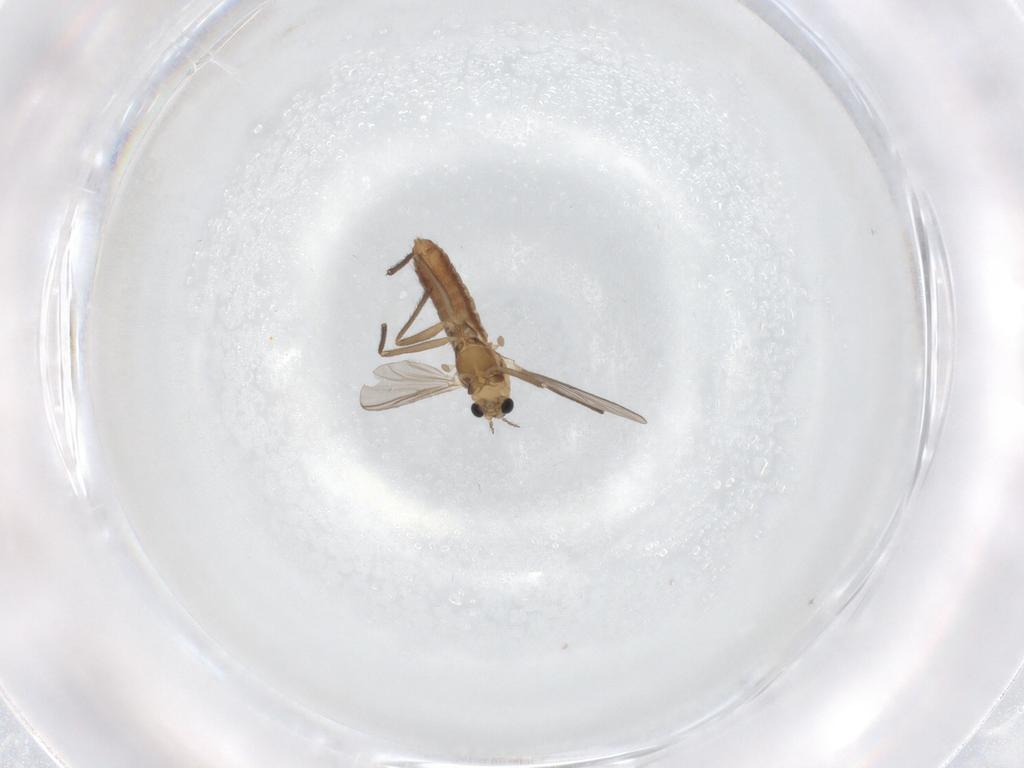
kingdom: Animalia
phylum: Arthropoda
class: Insecta
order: Diptera
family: Chironomidae
